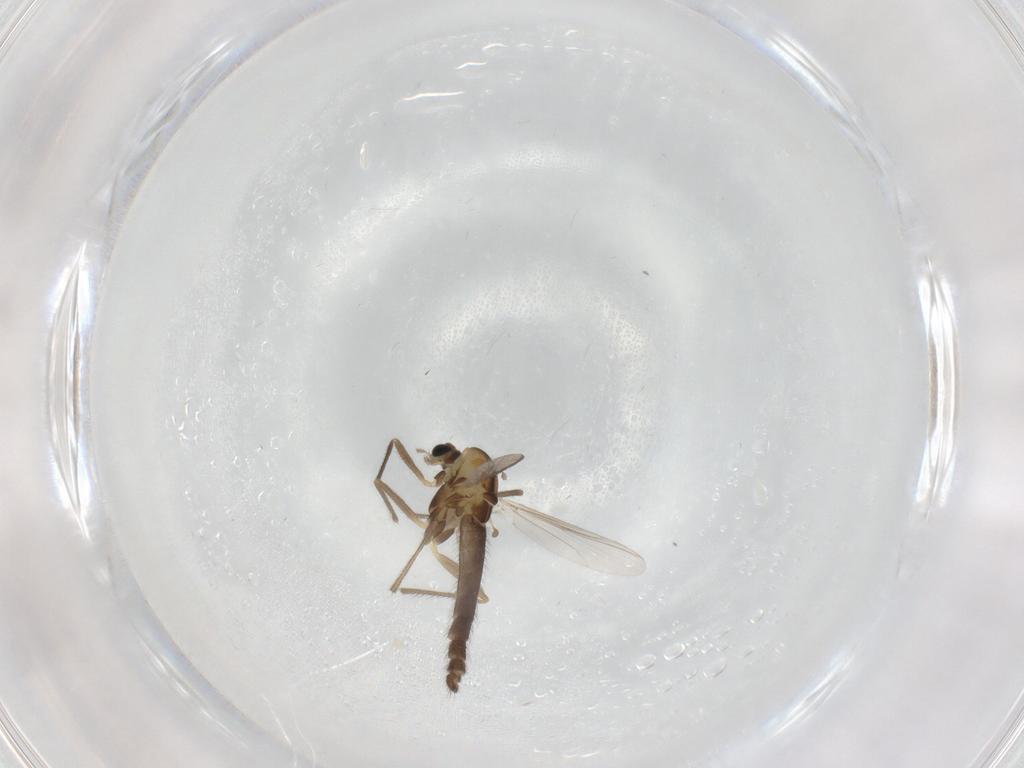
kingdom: Animalia
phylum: Arthropoda
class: Insecta
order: Diptera
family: Chironomidae
